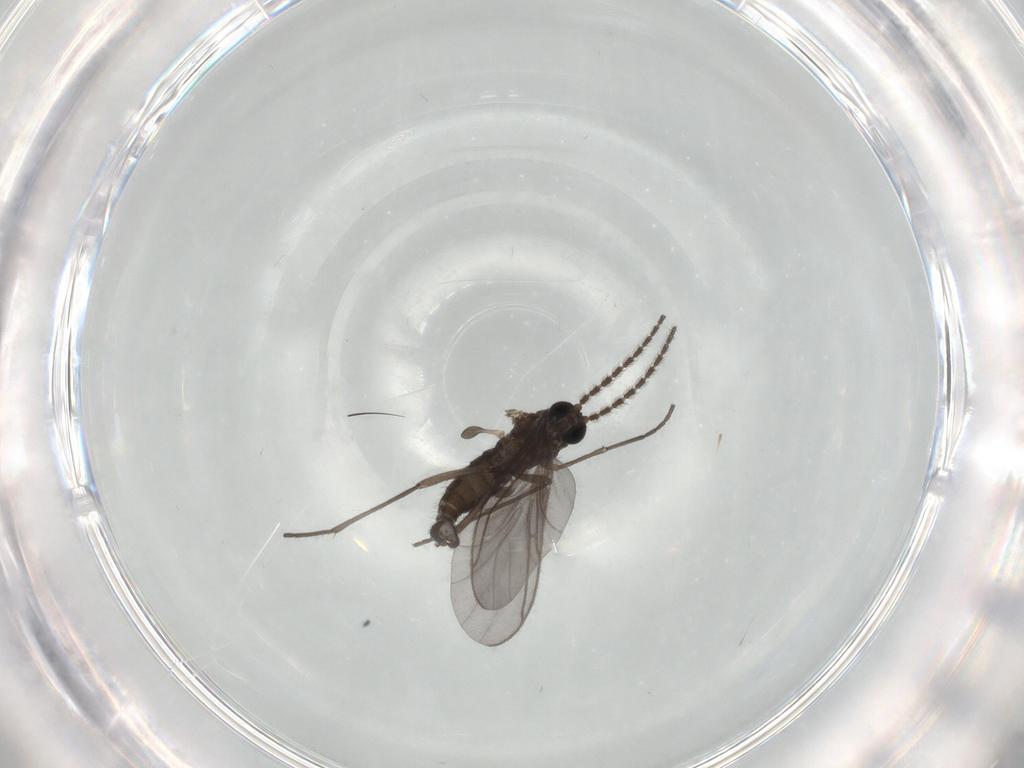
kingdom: Animalia
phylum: Arthropoda
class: Insecta
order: Diptera
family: Sciaridae
